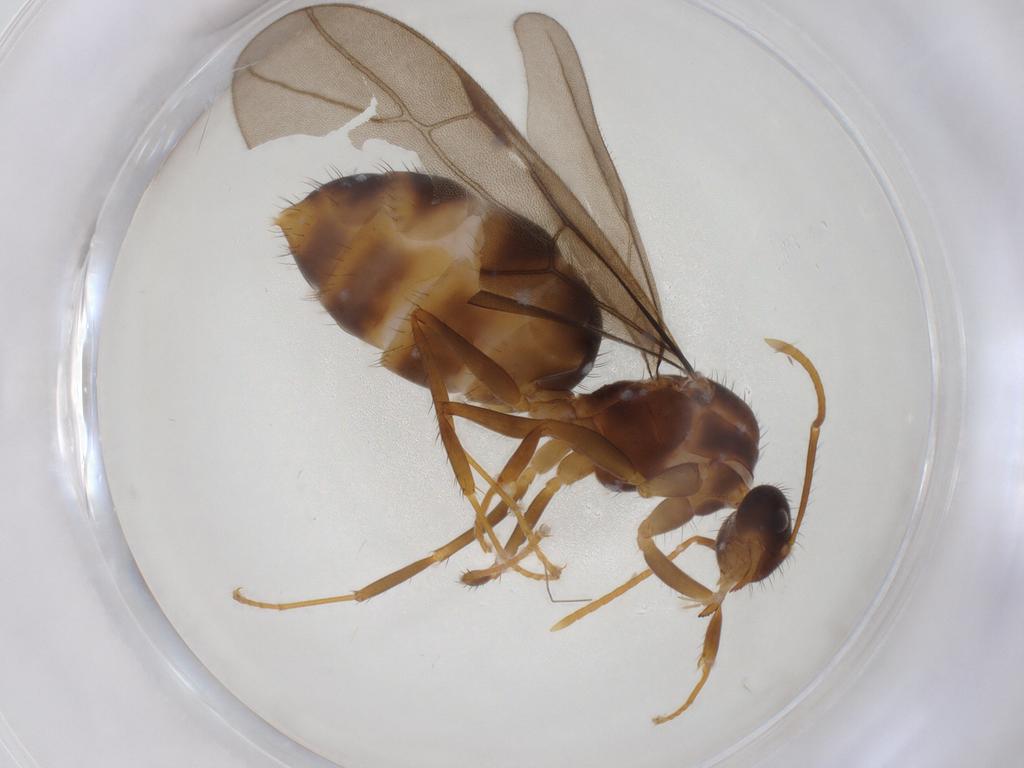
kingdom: Animalia
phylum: Arthropoda
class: Insecta
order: Hymenoptera
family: Formicidae
